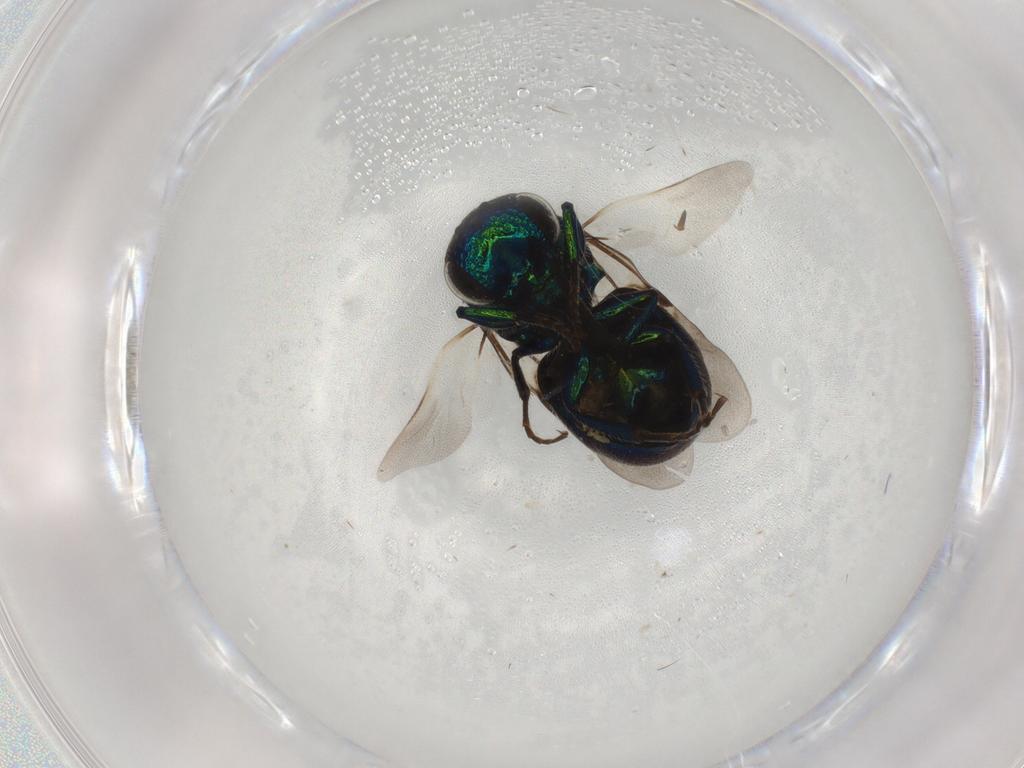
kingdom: Animalia
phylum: Arthropoda
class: Insecta
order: Hymenoptera
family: Chrysididae
